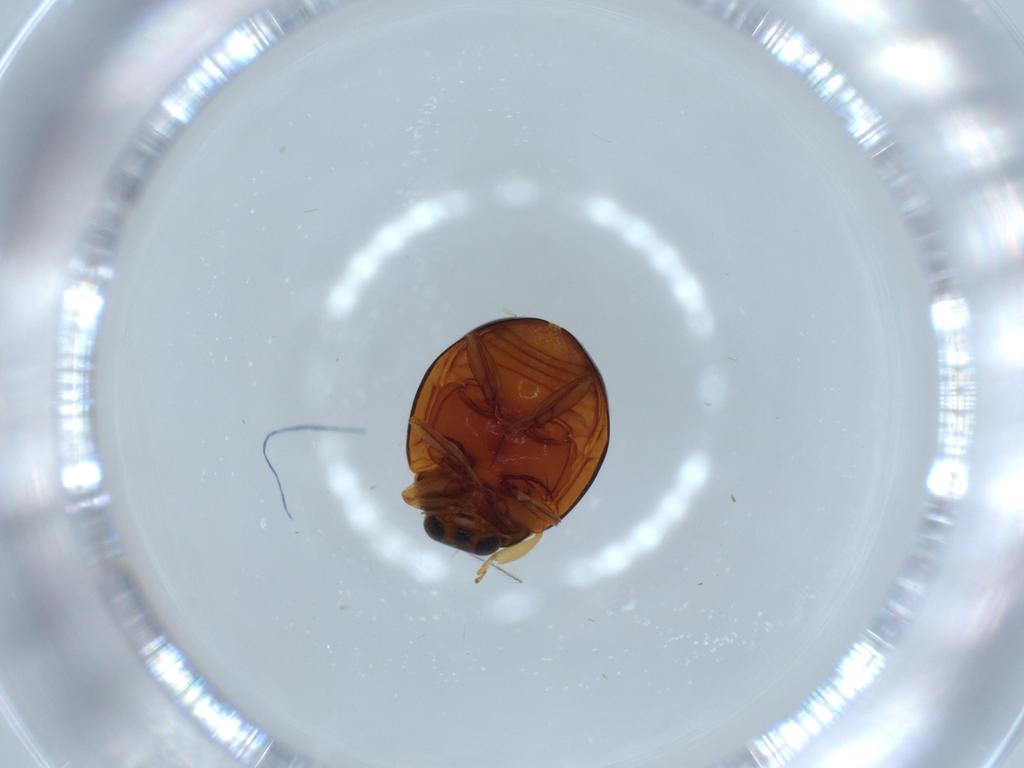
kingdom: Animalia
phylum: Arthropoda
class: Insecta
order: Coleoptera
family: Coccinellidae
